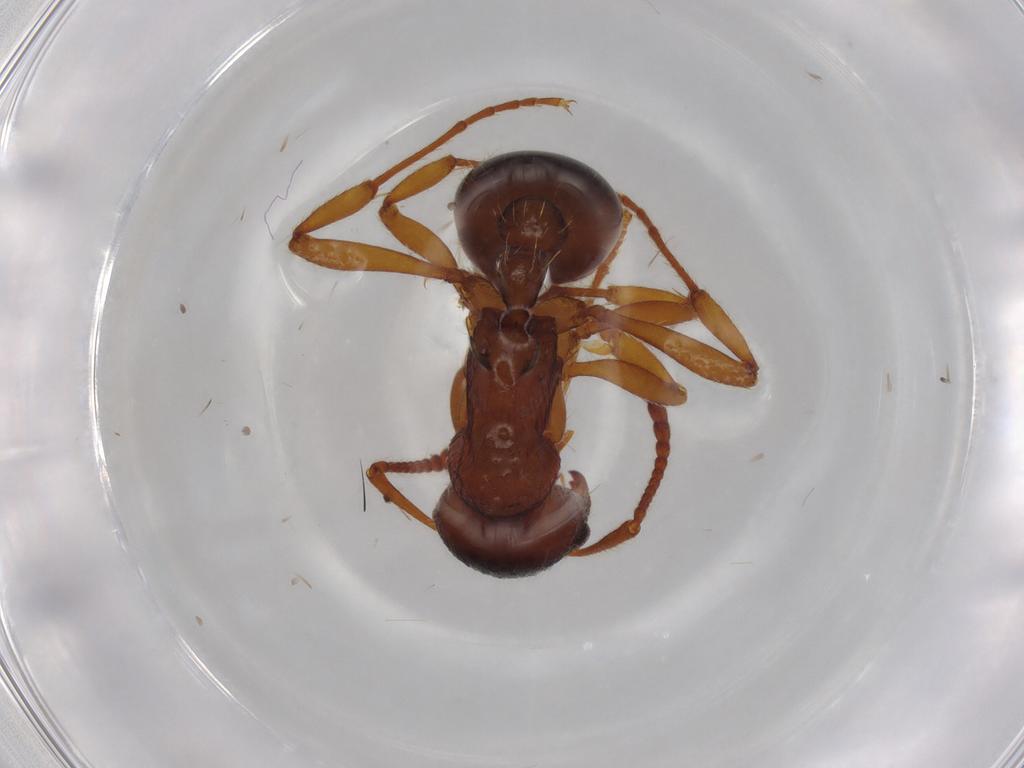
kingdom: Animalia
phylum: Arthropoda
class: Insecta
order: Hymenoptera
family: Formicidae
